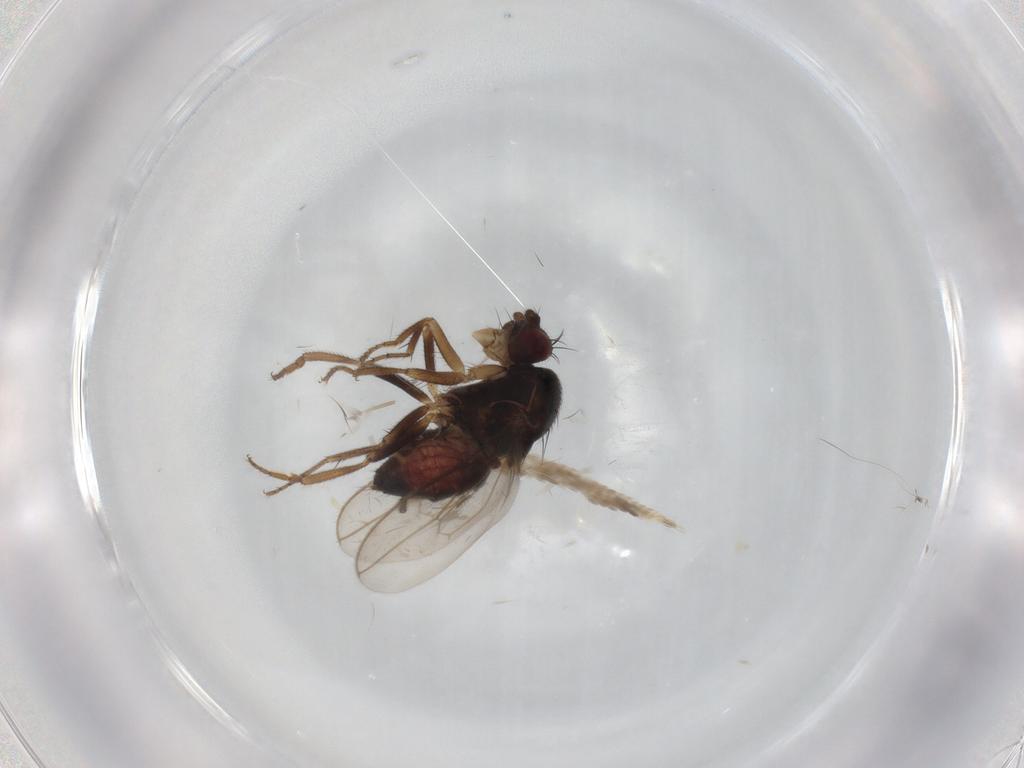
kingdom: Animalia
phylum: Arthropoda
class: Insecta
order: Diptera
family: Sphaeroceridae
